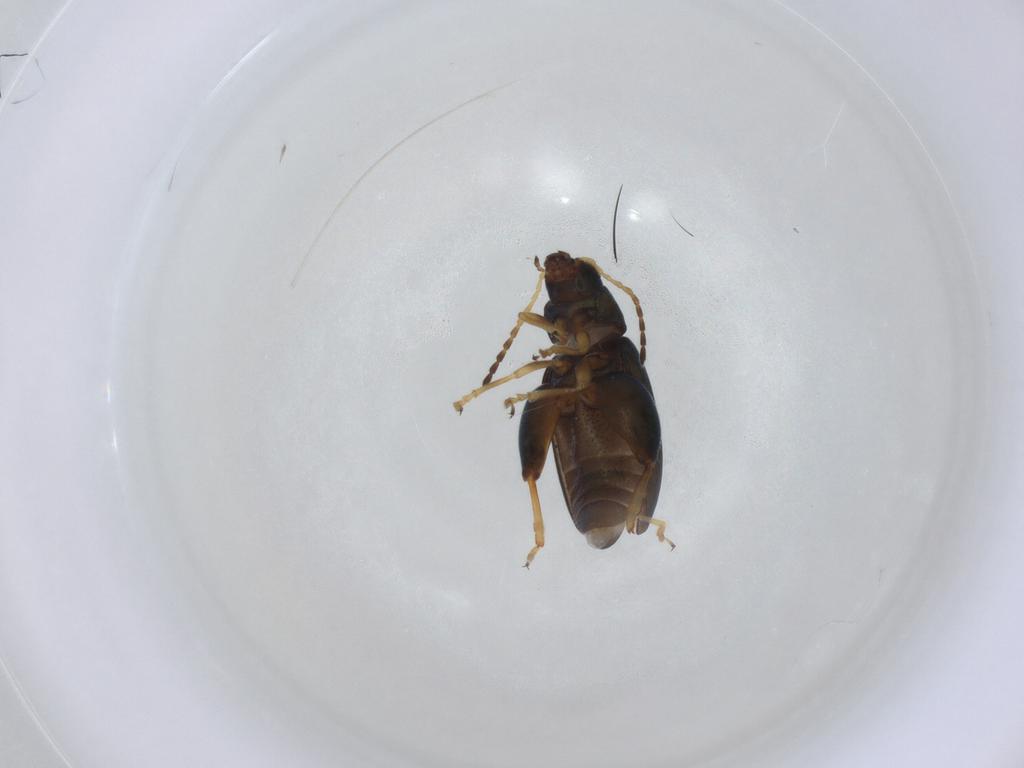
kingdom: Animalia
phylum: Arthropoda
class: Insecta
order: Coleoptera
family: Chrysomelidae
